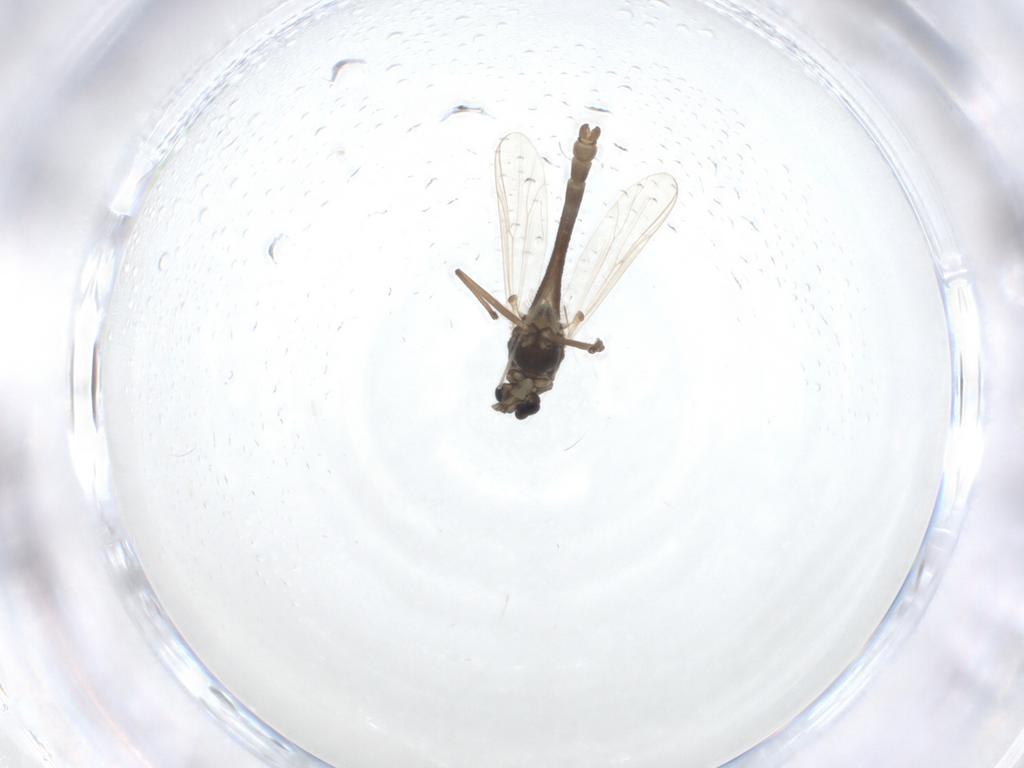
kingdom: Animalia
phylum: Arthropoda
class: Insecta
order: Diptera
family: Chironomidae
